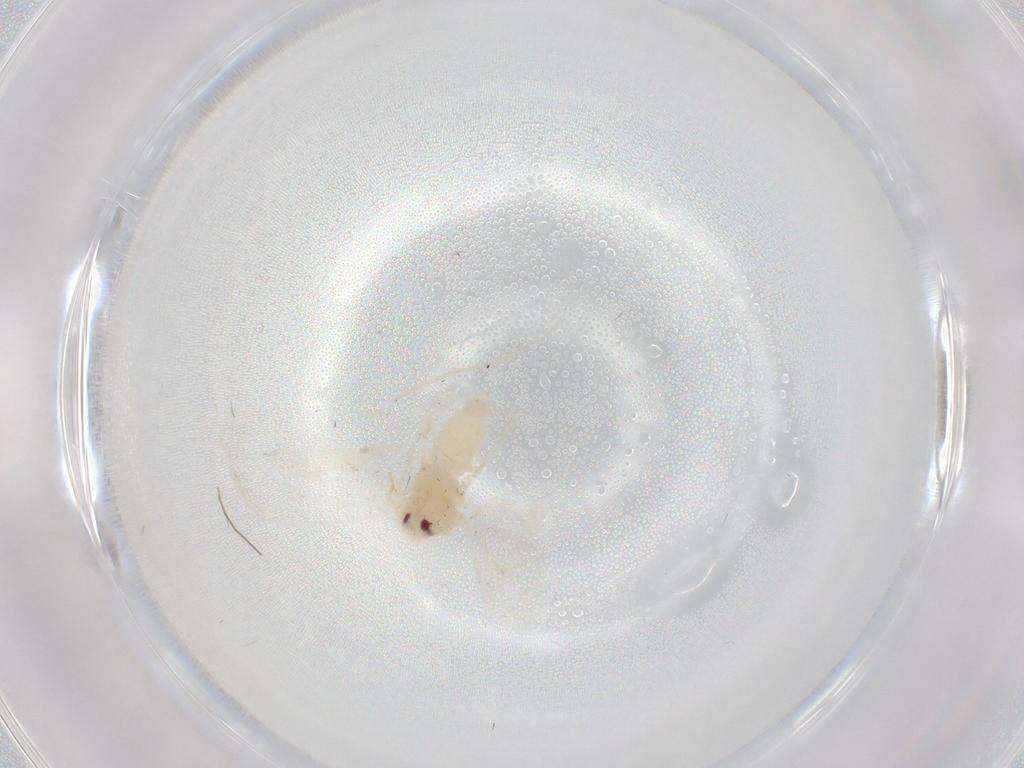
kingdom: Animalia
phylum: Arthropoda
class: Insecta
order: Hemiptera
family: Aleyrodidae
